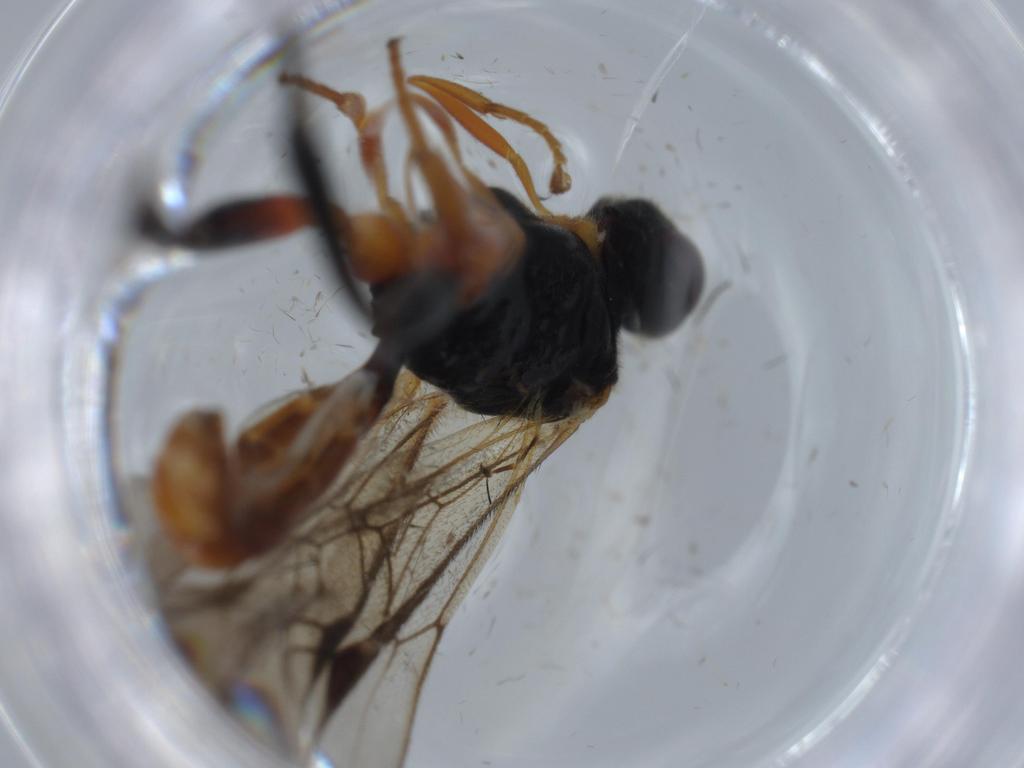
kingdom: Animalia
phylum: Arthropoda
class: Insecta
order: Hymenoptera
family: Ichneumonidae
